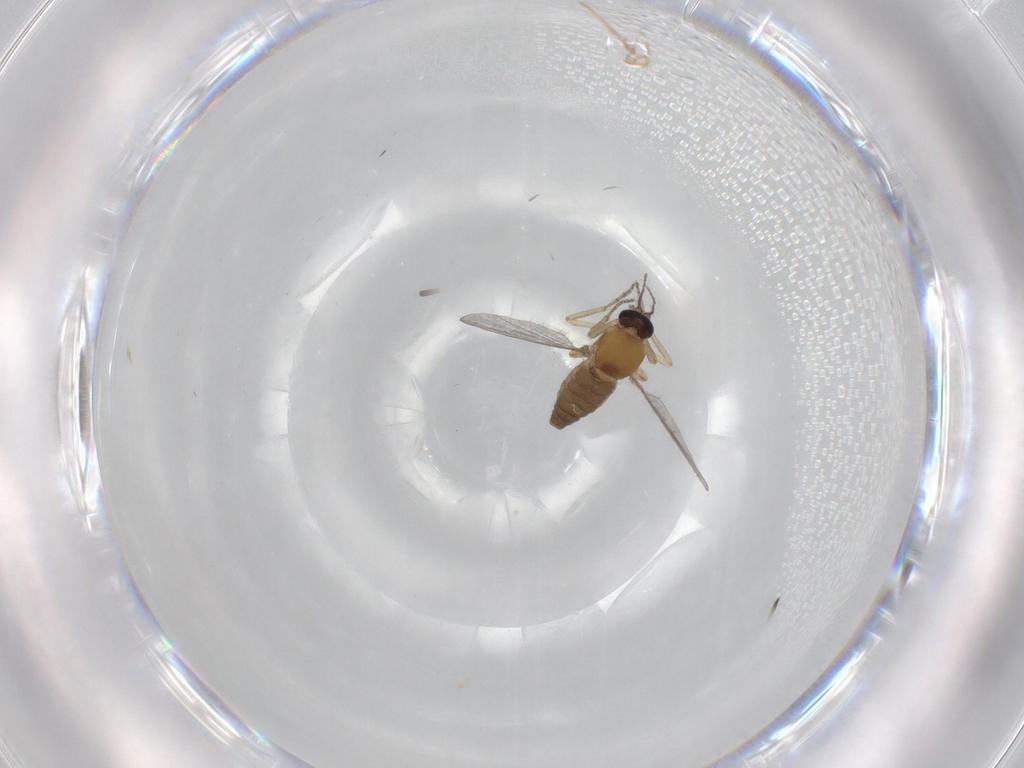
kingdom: Animalia
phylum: Arthropoda
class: Insecta
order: Diptera
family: Ceratopogonidae
